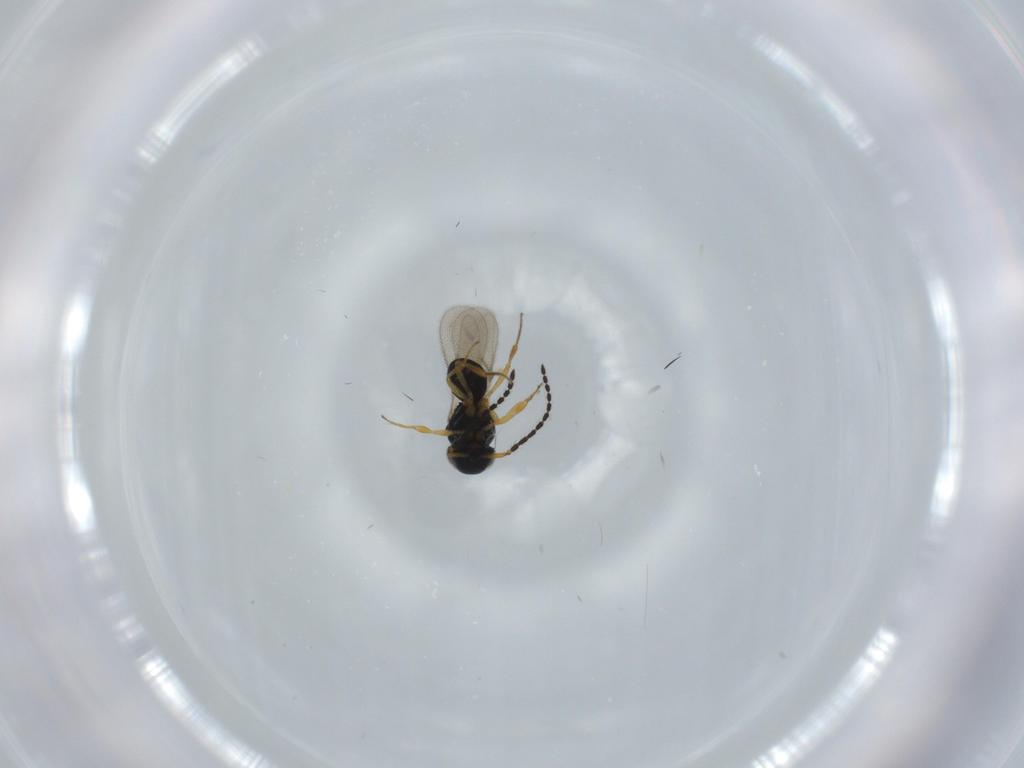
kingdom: Animalia
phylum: Arthropoda
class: Insecta
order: Hymenoptera
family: Scelionidae
